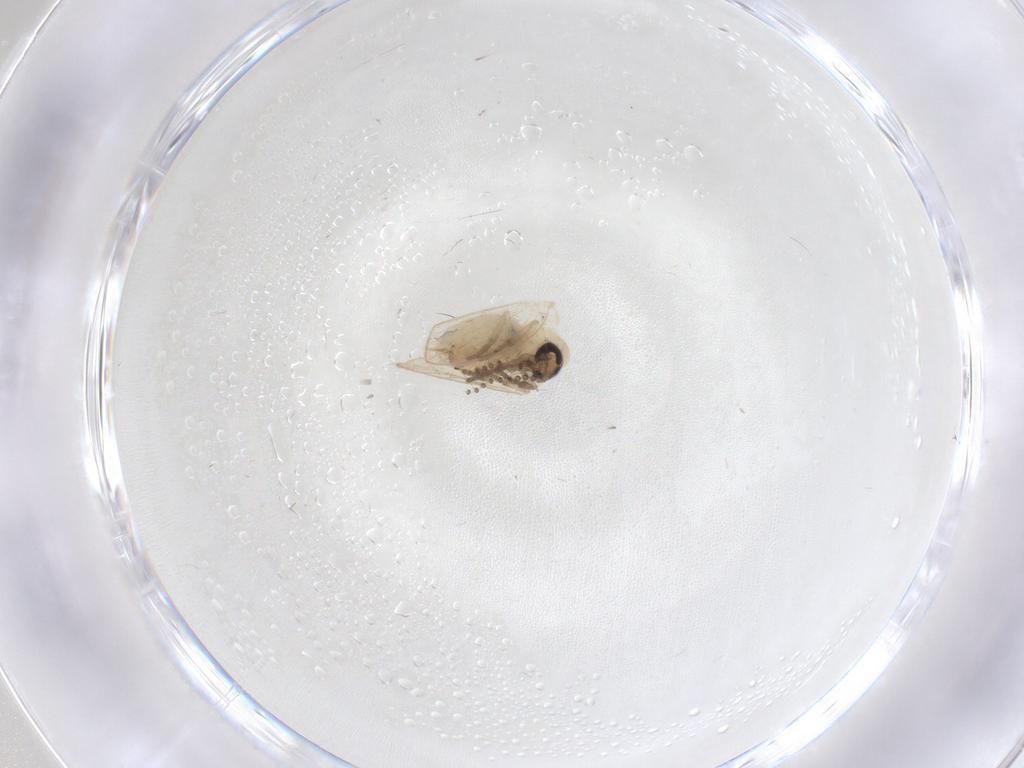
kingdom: Animalia
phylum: Arthropoda
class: Insecta
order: Diptera
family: Psychodidae
